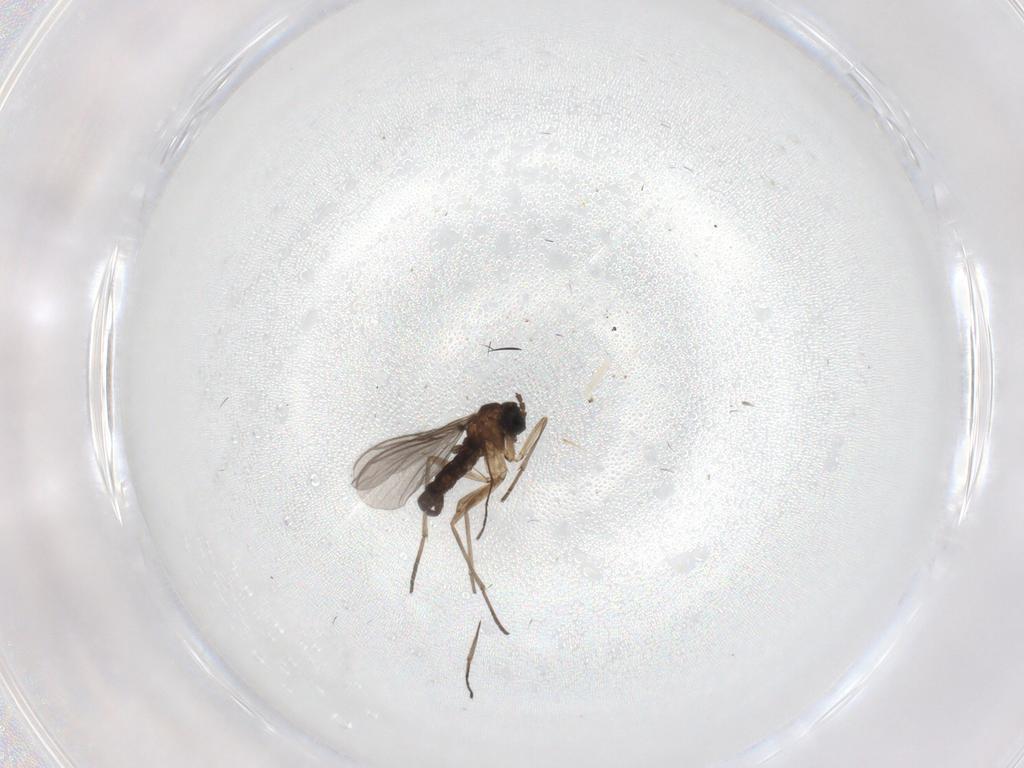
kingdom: Animalia
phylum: Arthropoda
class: Insecta
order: Diptera
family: Sciaridae
